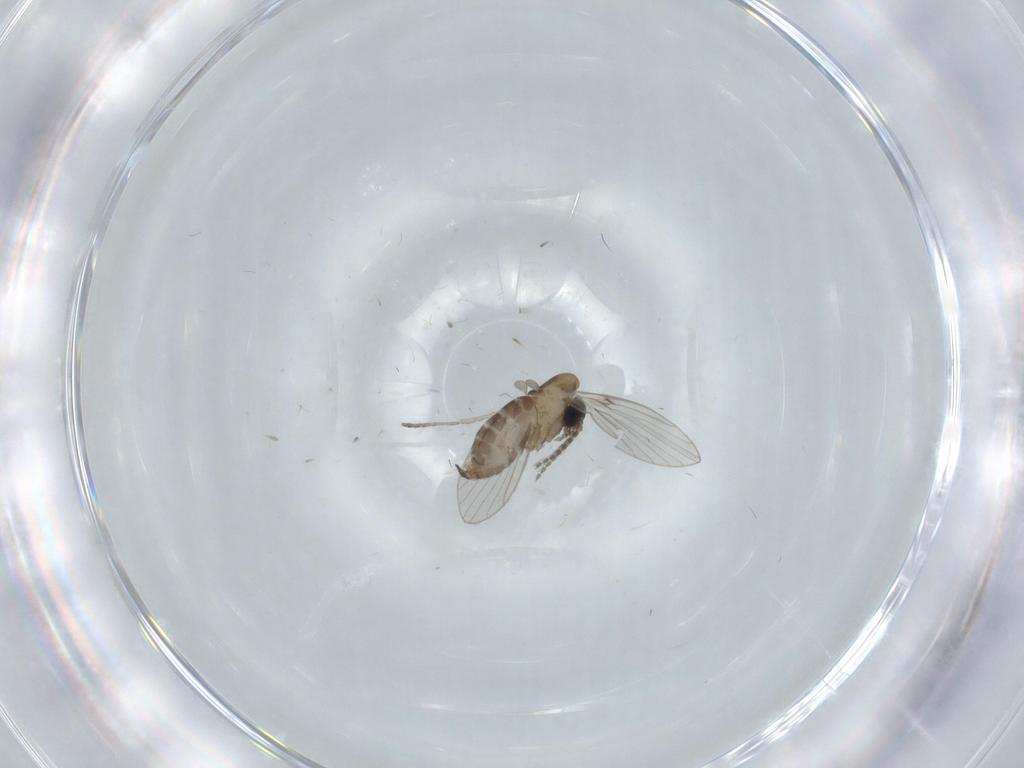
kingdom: Animalia
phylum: Arthropoda
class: Insecta
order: Diptera
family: Psychodidae
